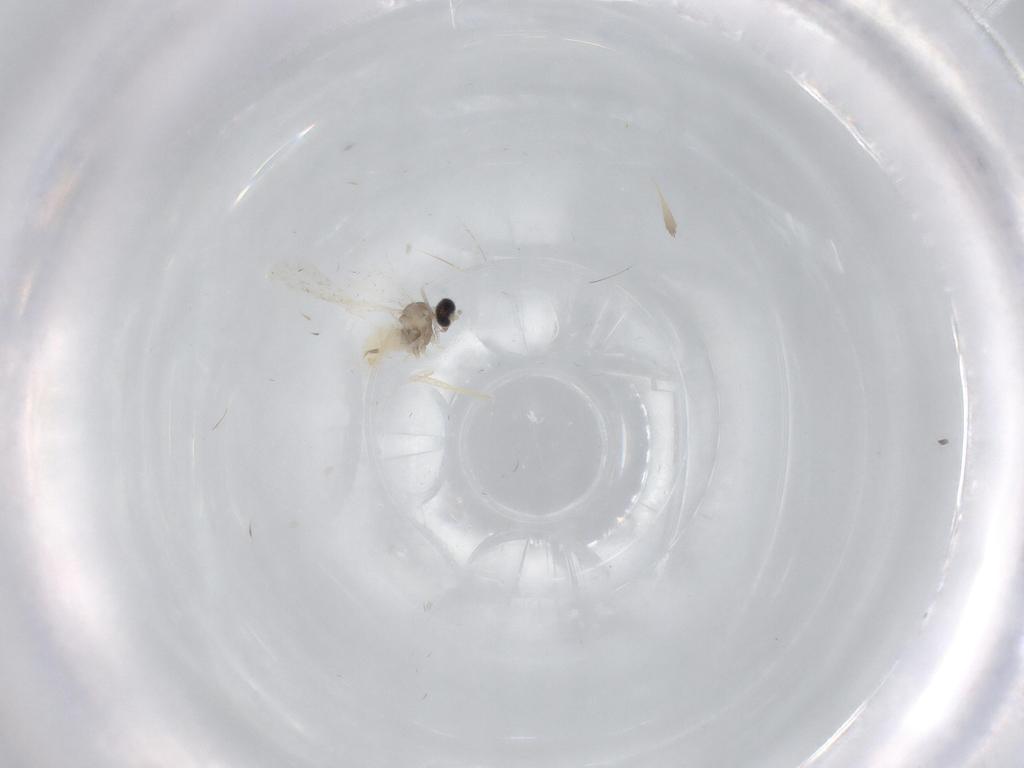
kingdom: Animalia
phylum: Arthropoda
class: Insecta
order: Diptera
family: Cecidomyiidae
